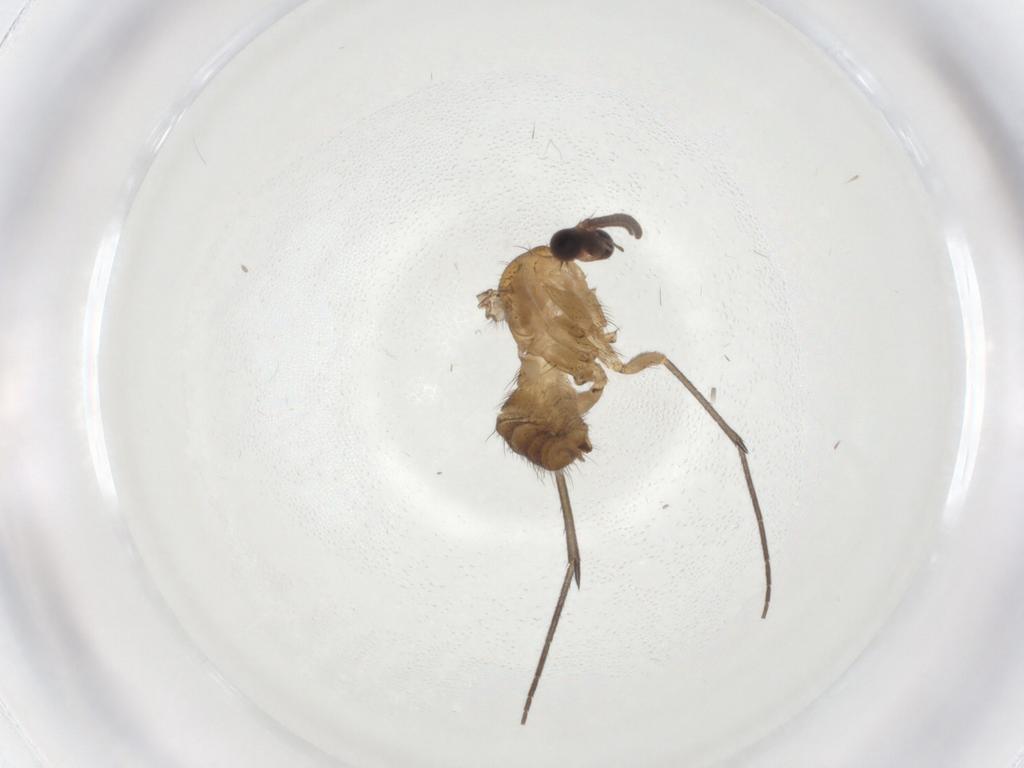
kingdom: Animalia
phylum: Arthropoda
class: Insecta
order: Diptera
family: Mycetophilidae
